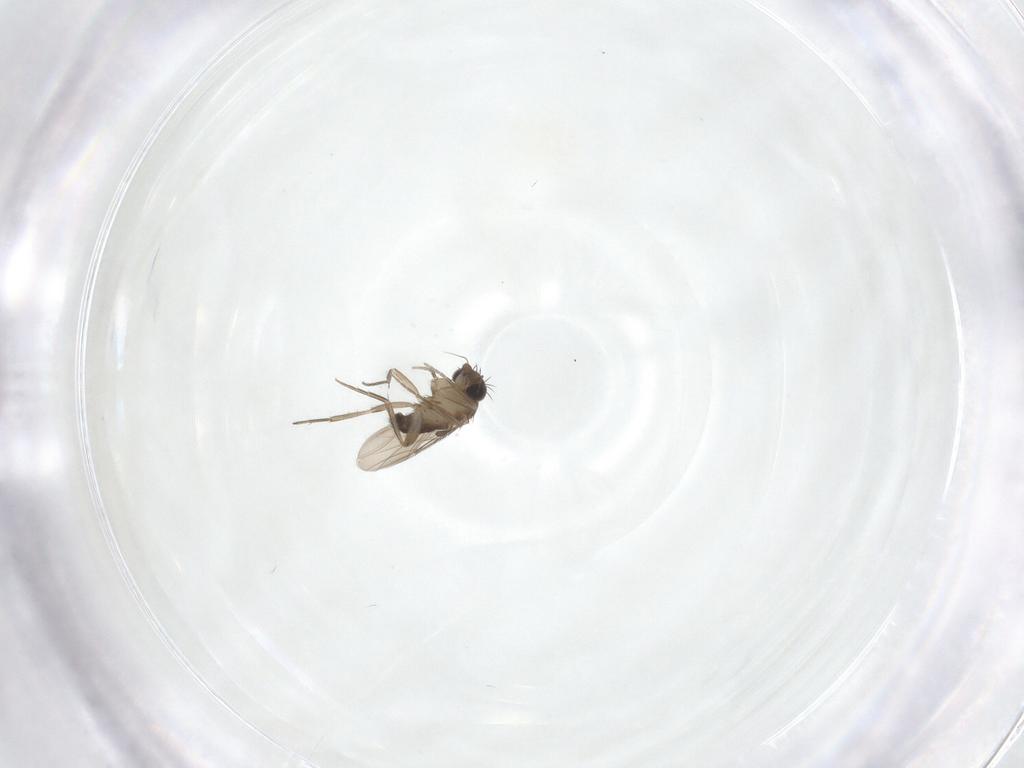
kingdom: Animalia
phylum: Arthropoda
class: Insecta
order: Diptera
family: Phoridae
